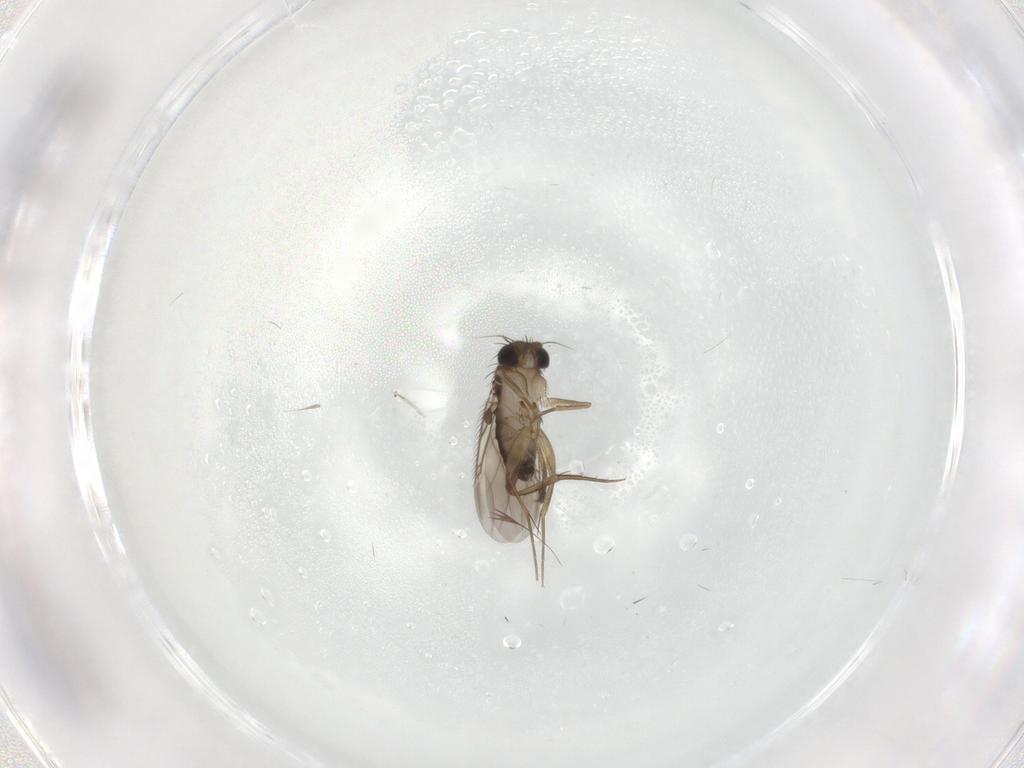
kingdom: Animalia
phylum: Arthropoda
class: Insecta
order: Diptera
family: Phoridae
